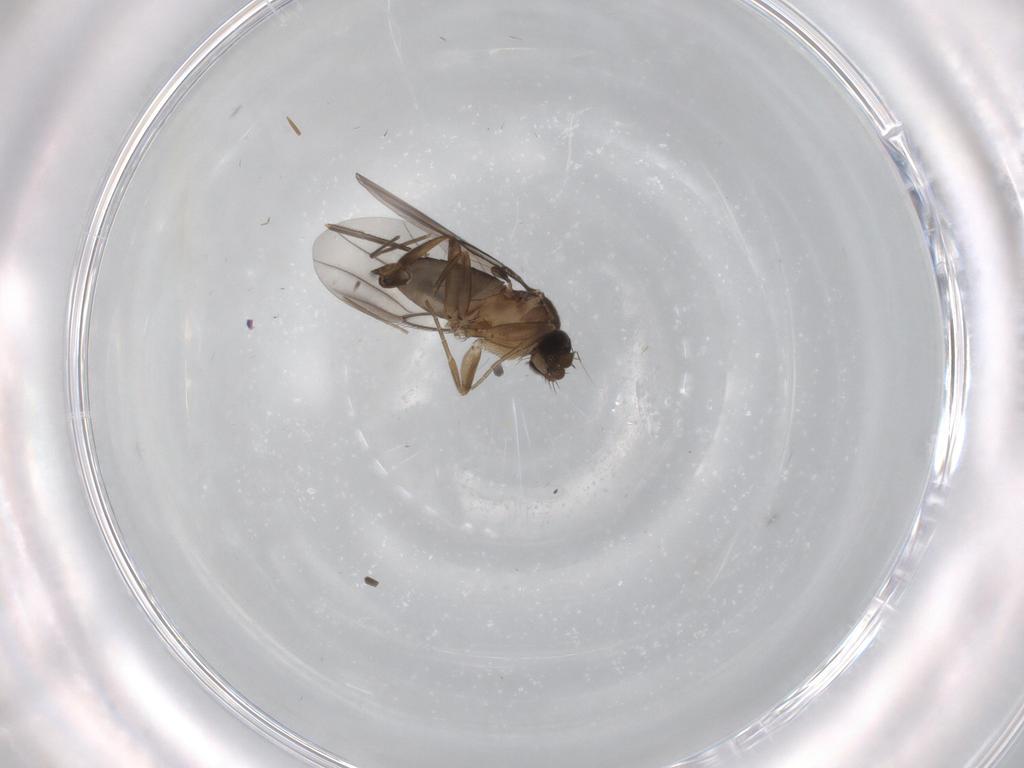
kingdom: Animalia
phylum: Arthropoda
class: Insecta
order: Diptera
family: Phoridae
